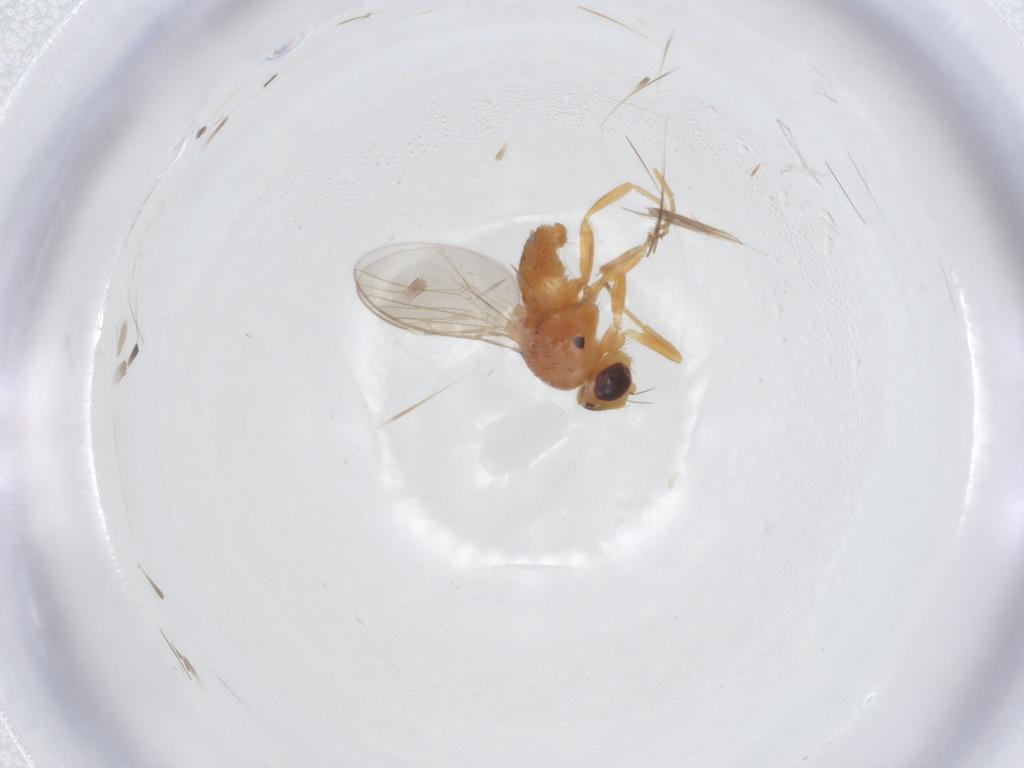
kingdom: Animalia
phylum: Arthropoda
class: Insecta
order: Diptera
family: Chloropidae
